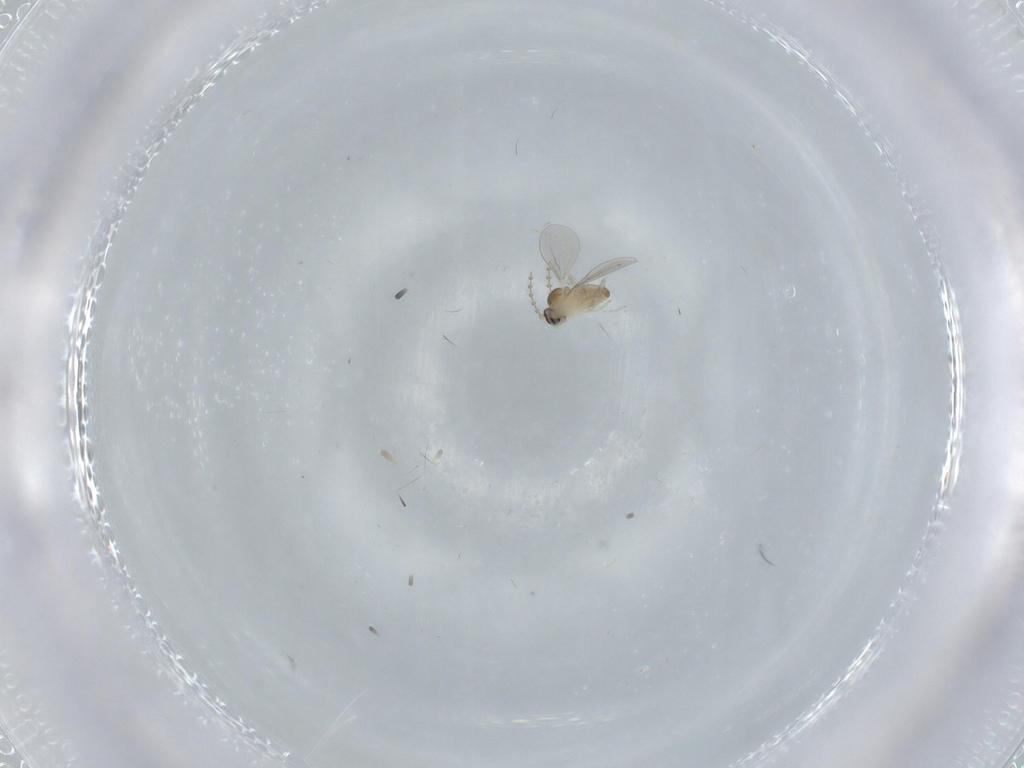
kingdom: Animalia
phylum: Arthropoda
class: Insecta
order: Diptera
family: Cecidomyiidae
